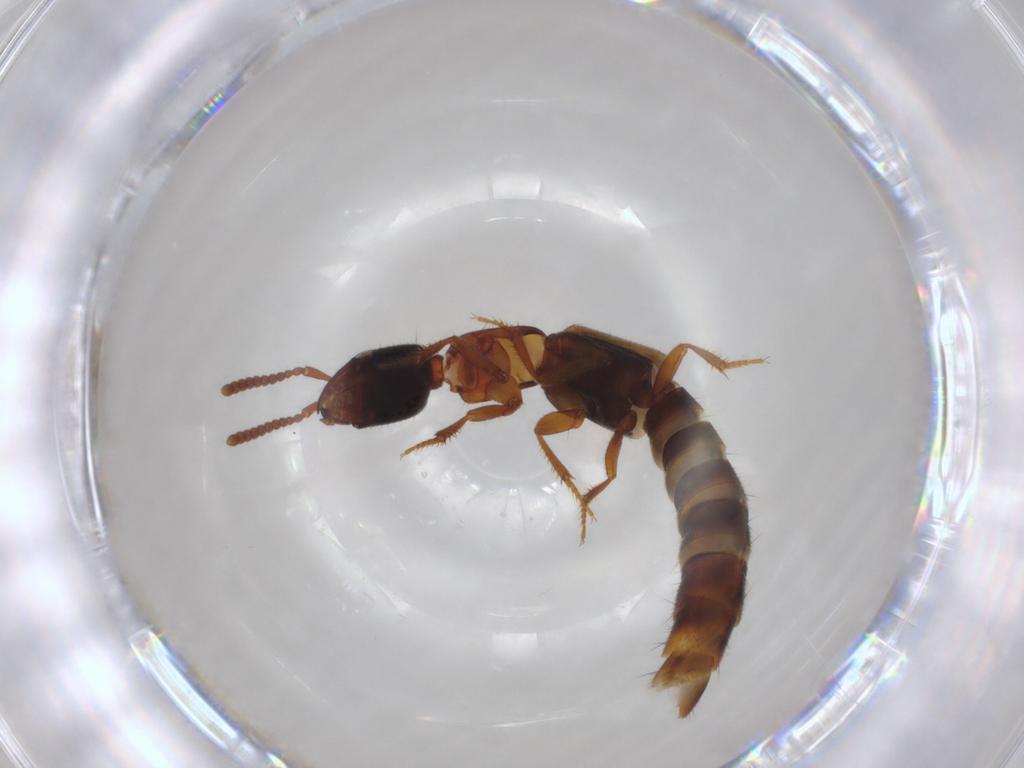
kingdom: Animalia
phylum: Arthropoda
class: Insecta
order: Coleoptera
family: Staphylinidae
